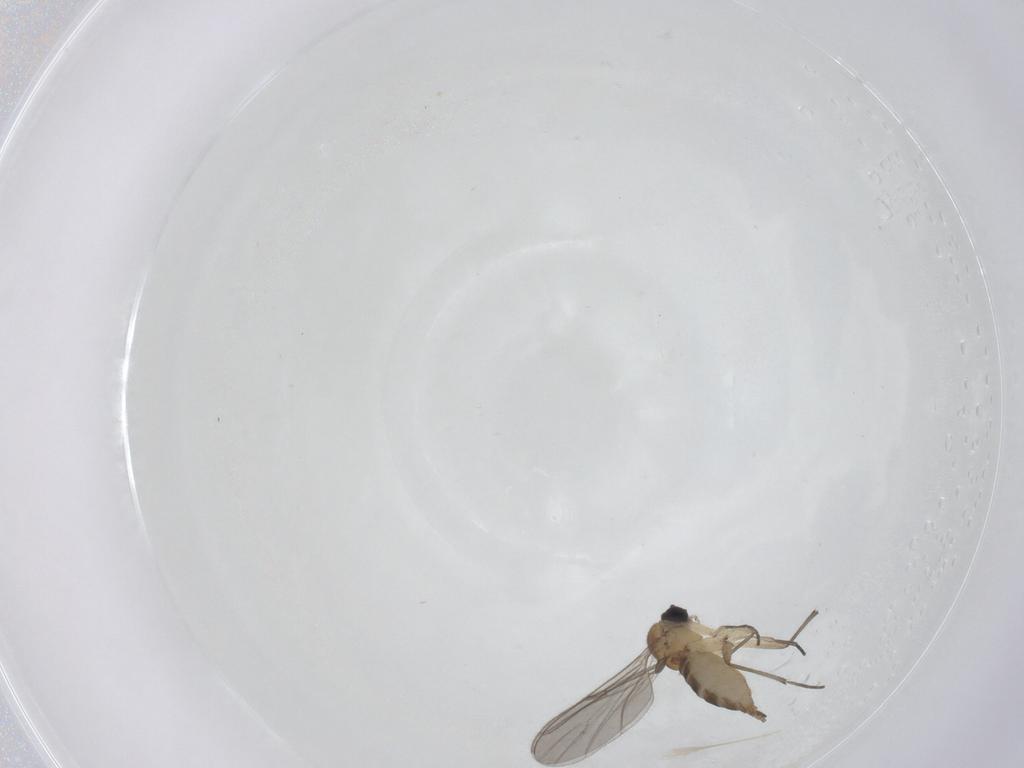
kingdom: Animalia
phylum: Arthropoda
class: Insecta
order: Diptera
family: Sciaridae
